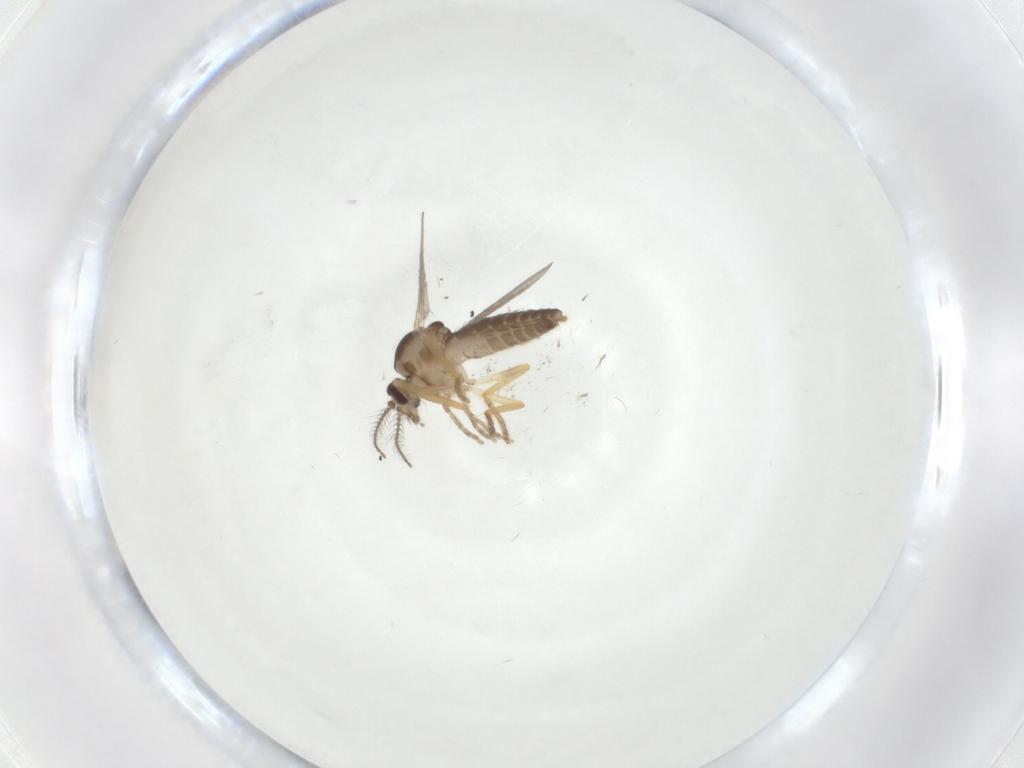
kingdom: Animalia
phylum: Arthropoda
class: Insecta
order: Diptera
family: Ceratopogonidae
